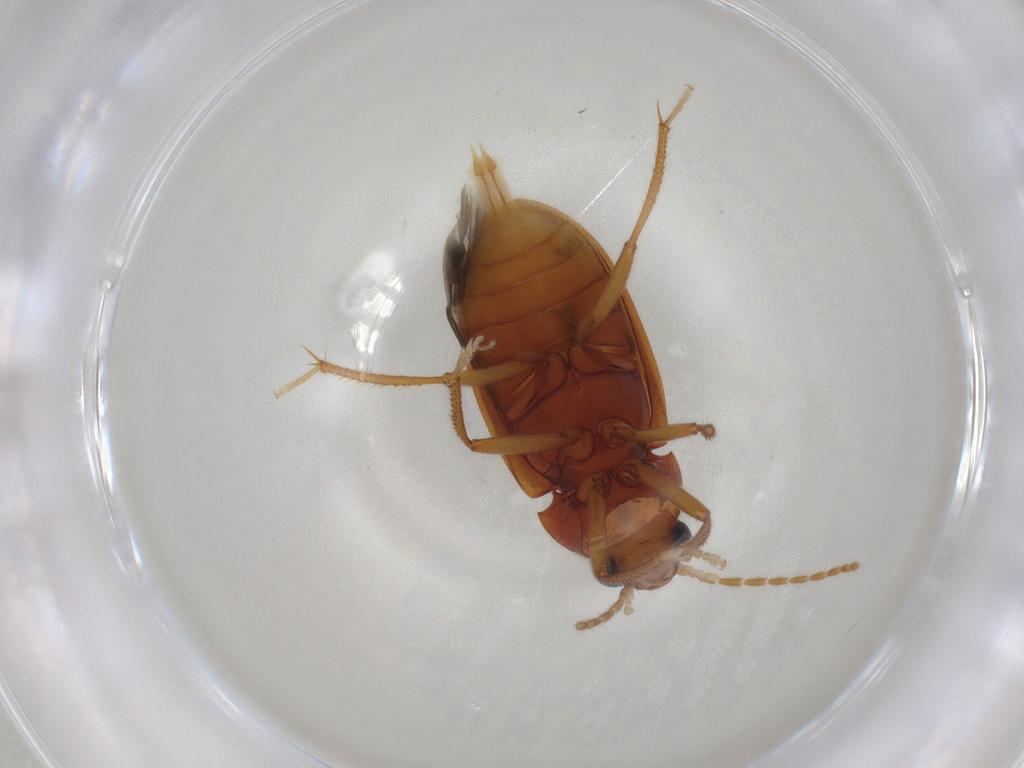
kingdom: Animalia
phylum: Arthropoda
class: Insecta
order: Coleoptera
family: Ptilodactylidae
